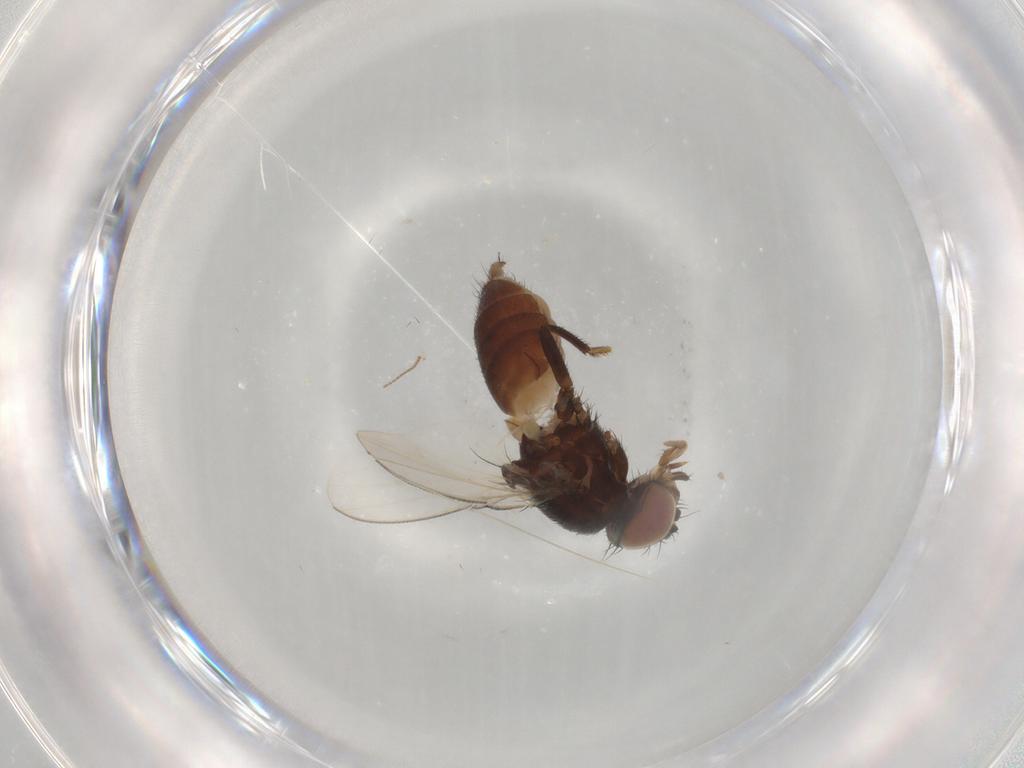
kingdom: Animalia
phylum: Arthropoda
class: Insecta
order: Diptera
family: Milichiidae
